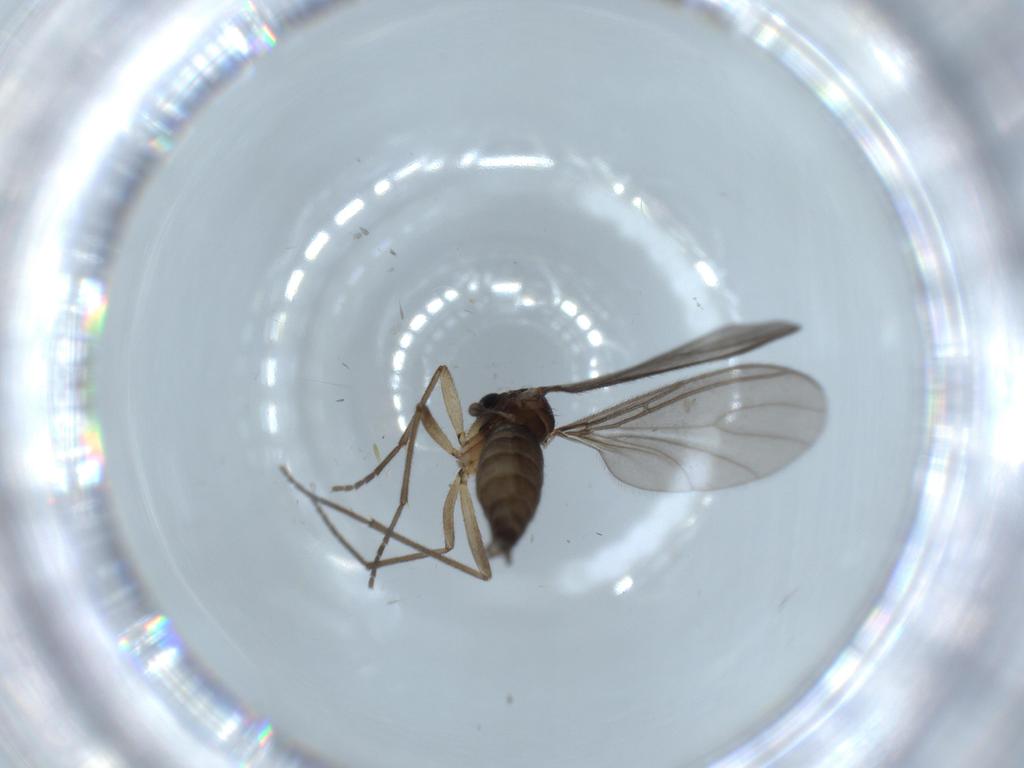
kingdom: Animalia
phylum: Arthropoda
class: Insecta
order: Diptera
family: Sciaridae
